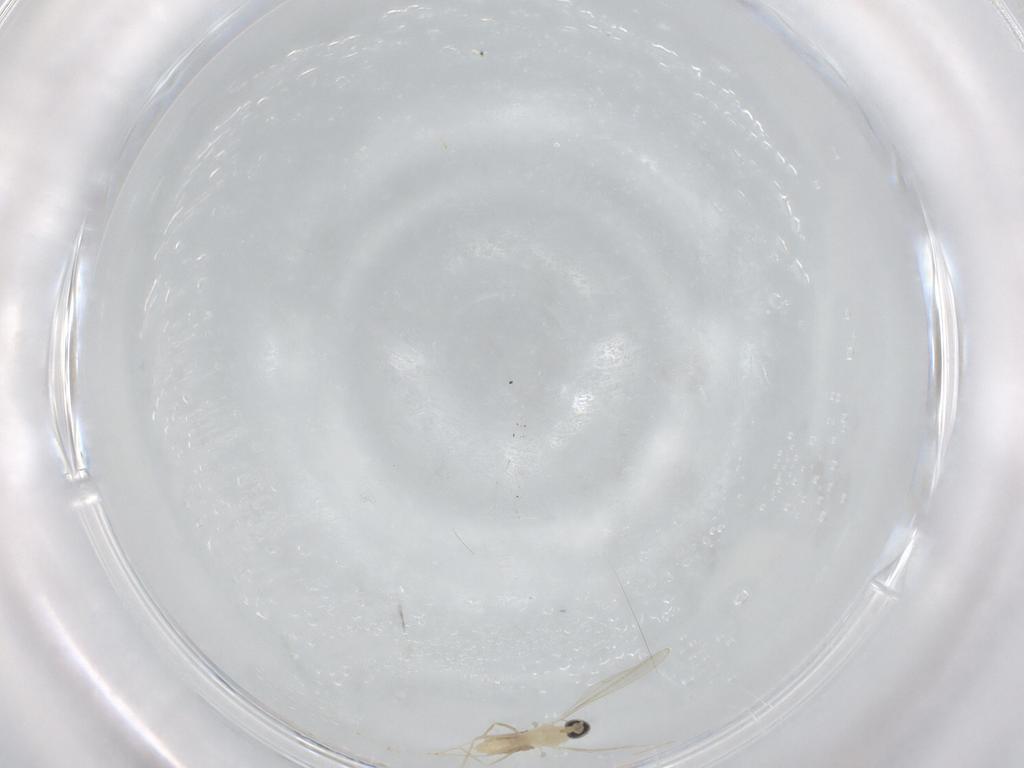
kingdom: Animalia
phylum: Arthropoda
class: Insecta
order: Diptera
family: Cecidomyiidae
